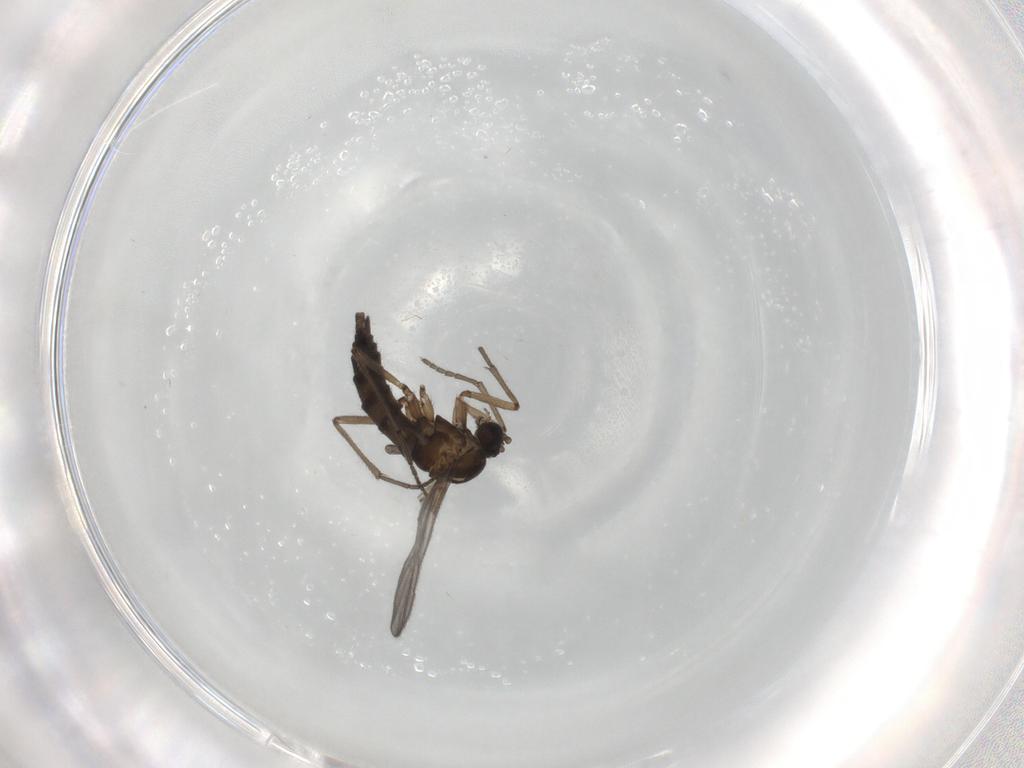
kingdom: Animalia
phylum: Arthropoda
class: Insecta
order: Diptera
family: Sciaridae
